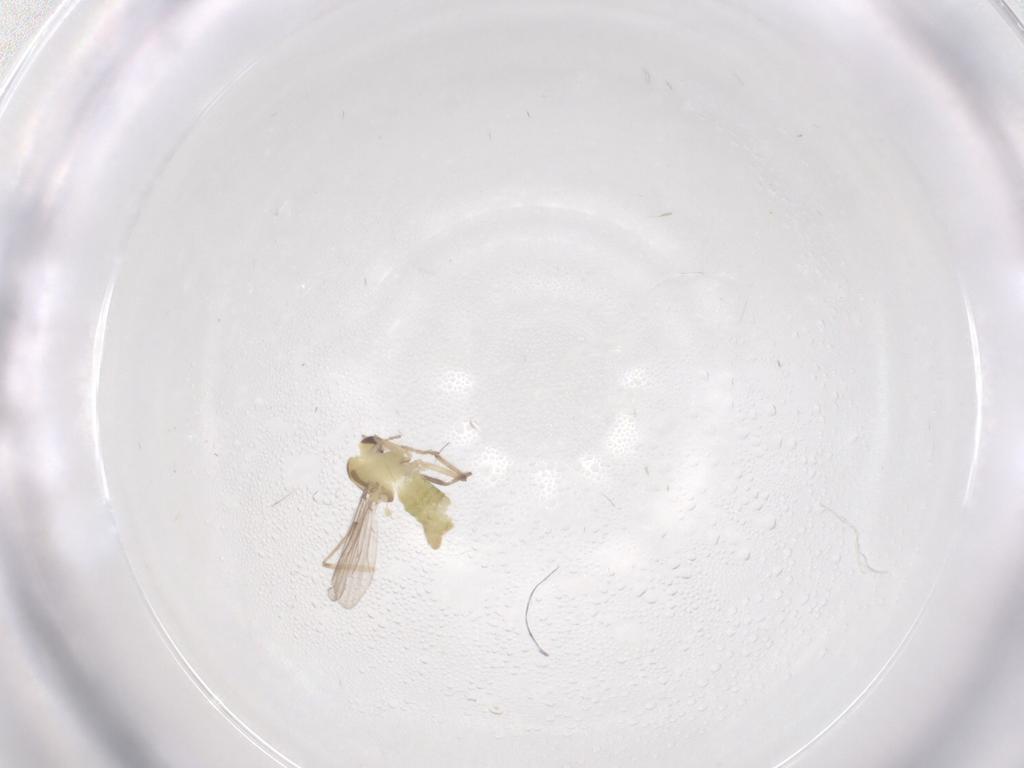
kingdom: Animalia
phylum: Arthropoda
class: Insecta
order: Diptera
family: Chironomidae
